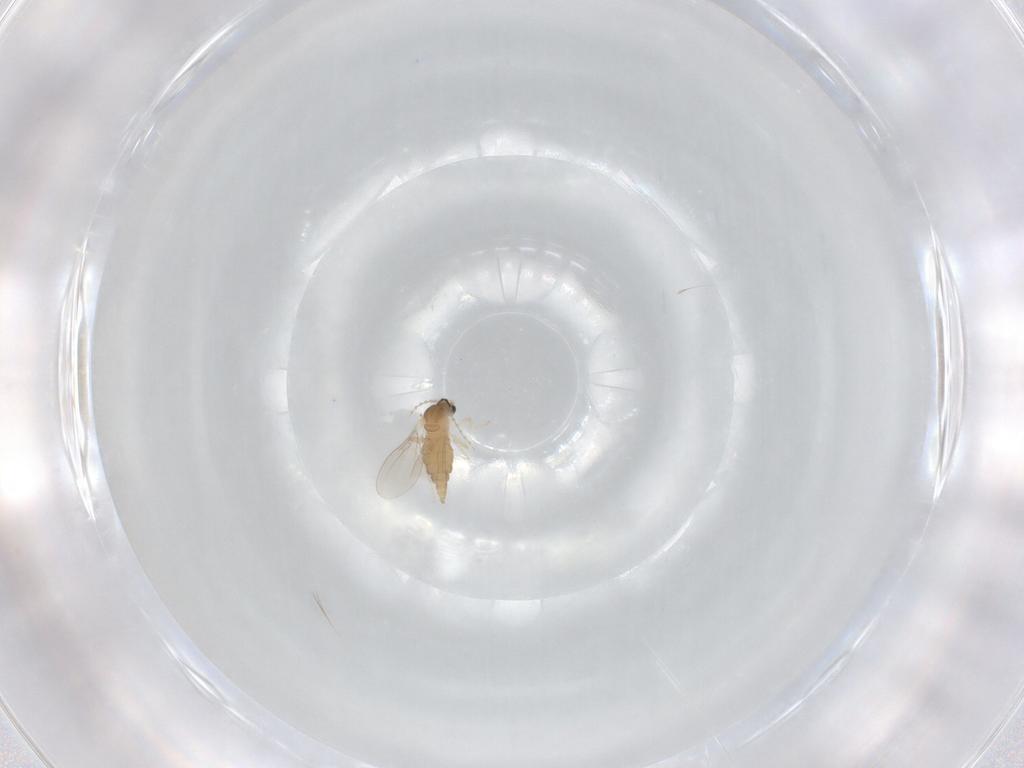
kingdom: Animalia
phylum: Arthropoda
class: Insecta
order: Diptera
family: Cecidomyiidae
